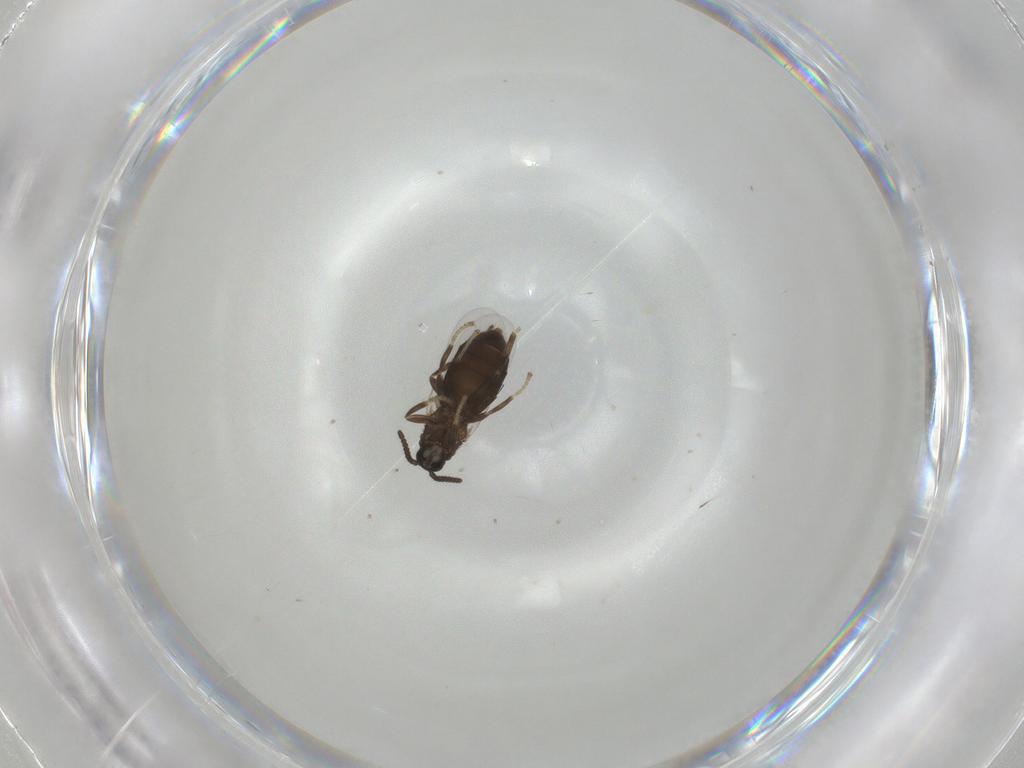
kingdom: Animalia
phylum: Arthropoda
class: Insecta
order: Diptera
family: Scatopsidae
